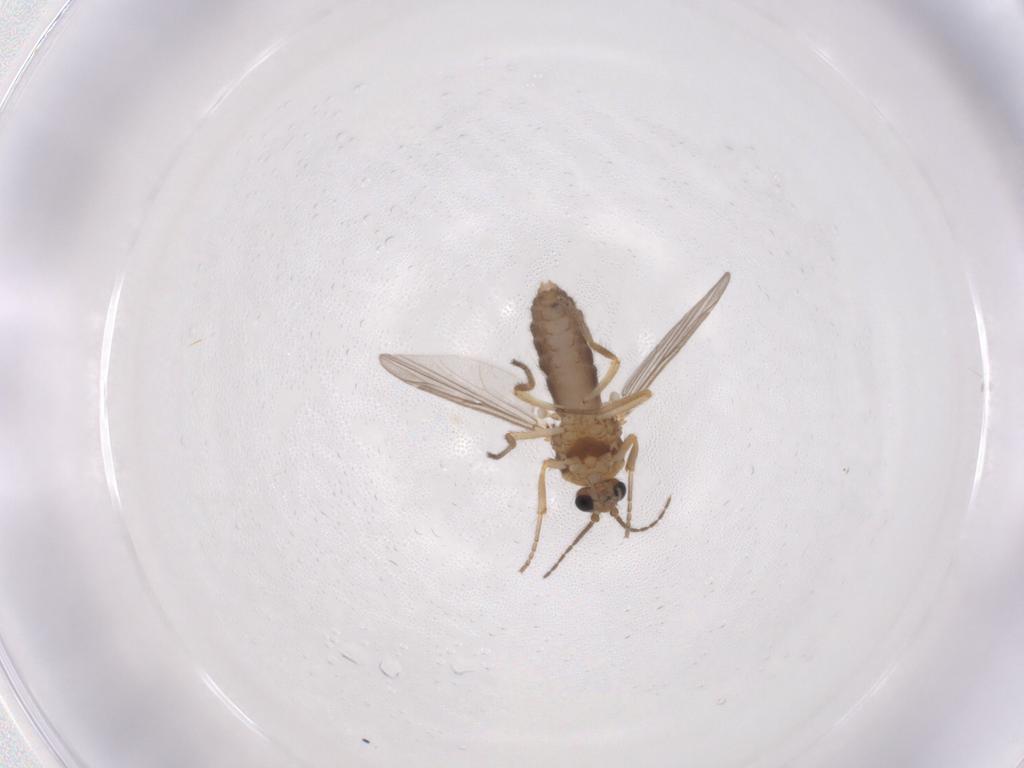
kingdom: Animalia
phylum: Arthropoda
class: Insecta
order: Diptera
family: Ceratopogonidae
